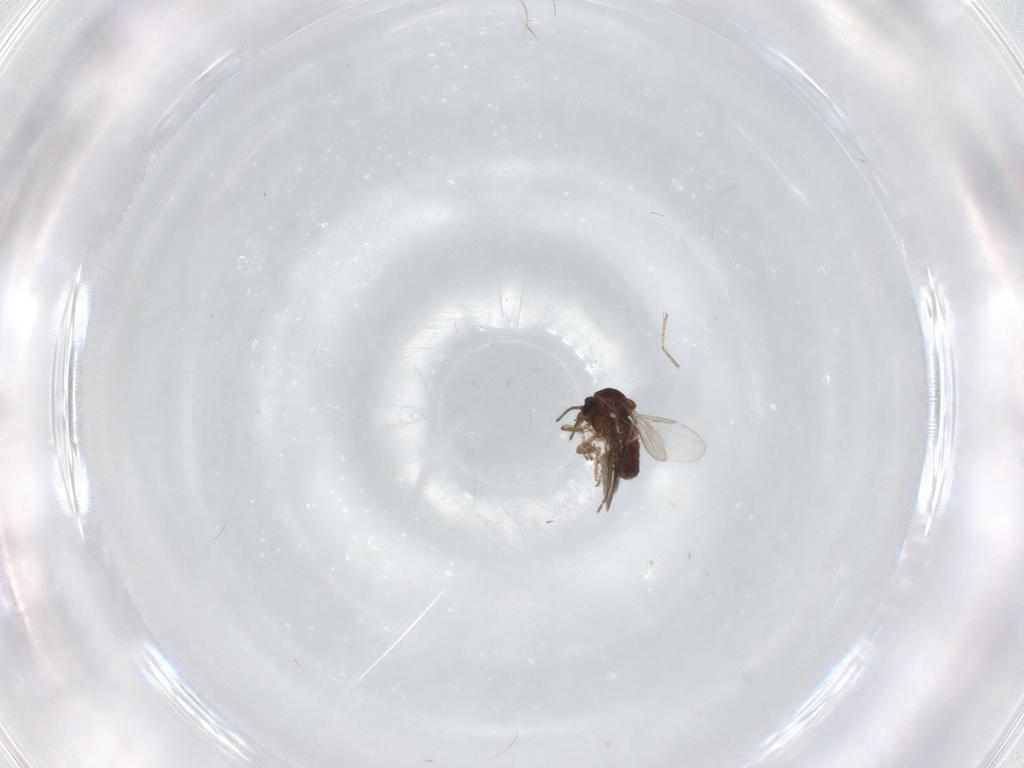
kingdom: Animalia
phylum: Arthropoda
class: Insecta
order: Diptera
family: Ceratopogonidae
